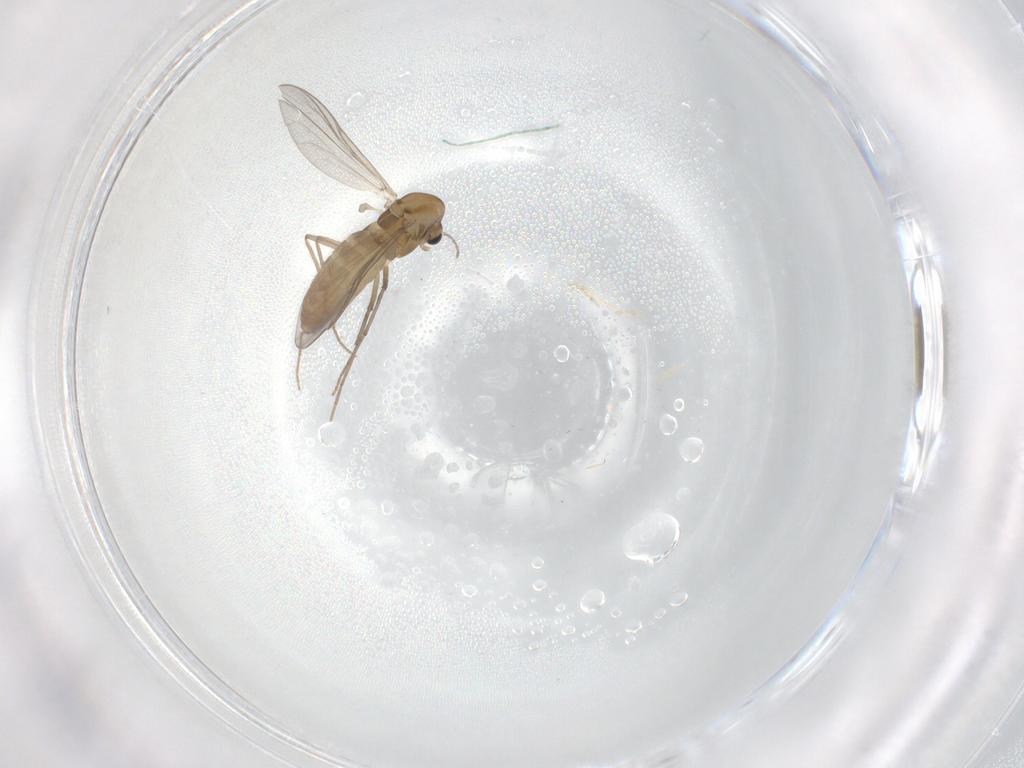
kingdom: Animalia
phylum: Arthropoda
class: Insecta
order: Diptera
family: Chironomidae
